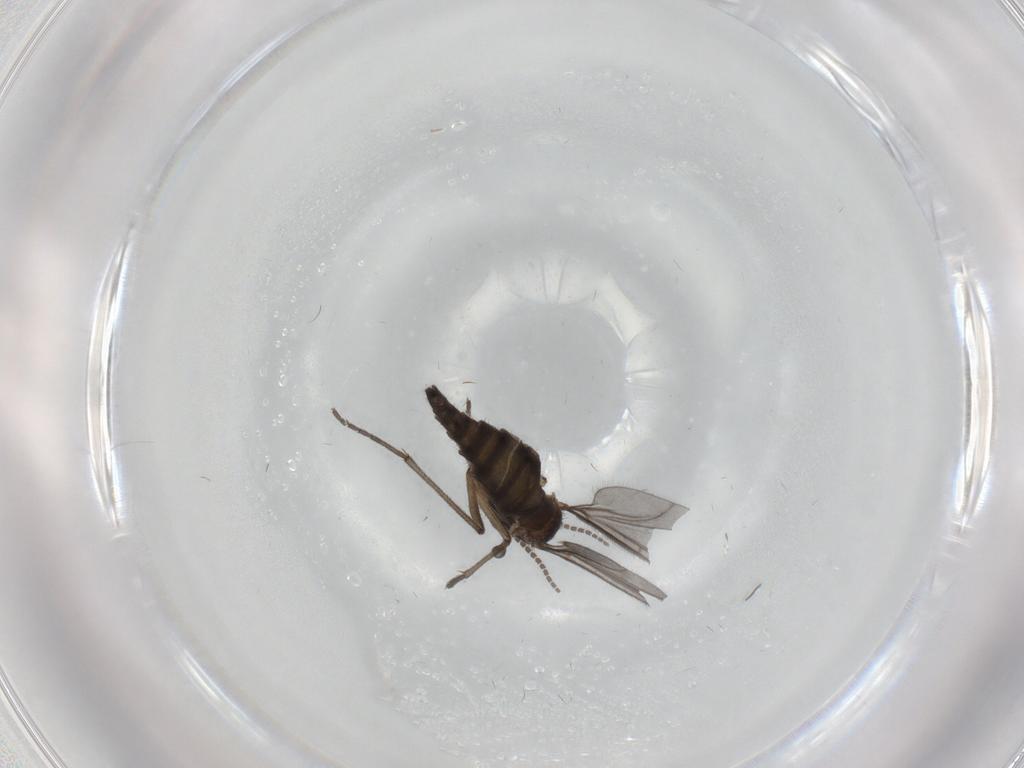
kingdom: Animalia
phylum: Arthropoda
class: Insecta
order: Diptera
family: Sciaridae
